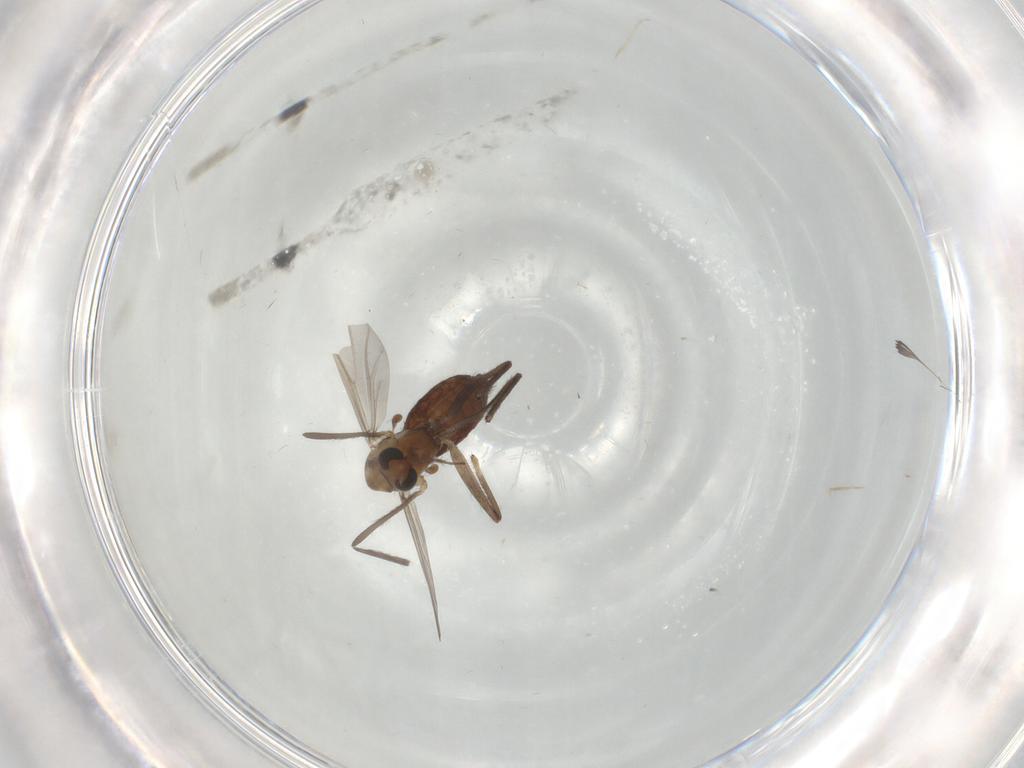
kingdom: Animalia
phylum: Arthropoda
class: Insecta
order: Diptera
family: Chironomidae
